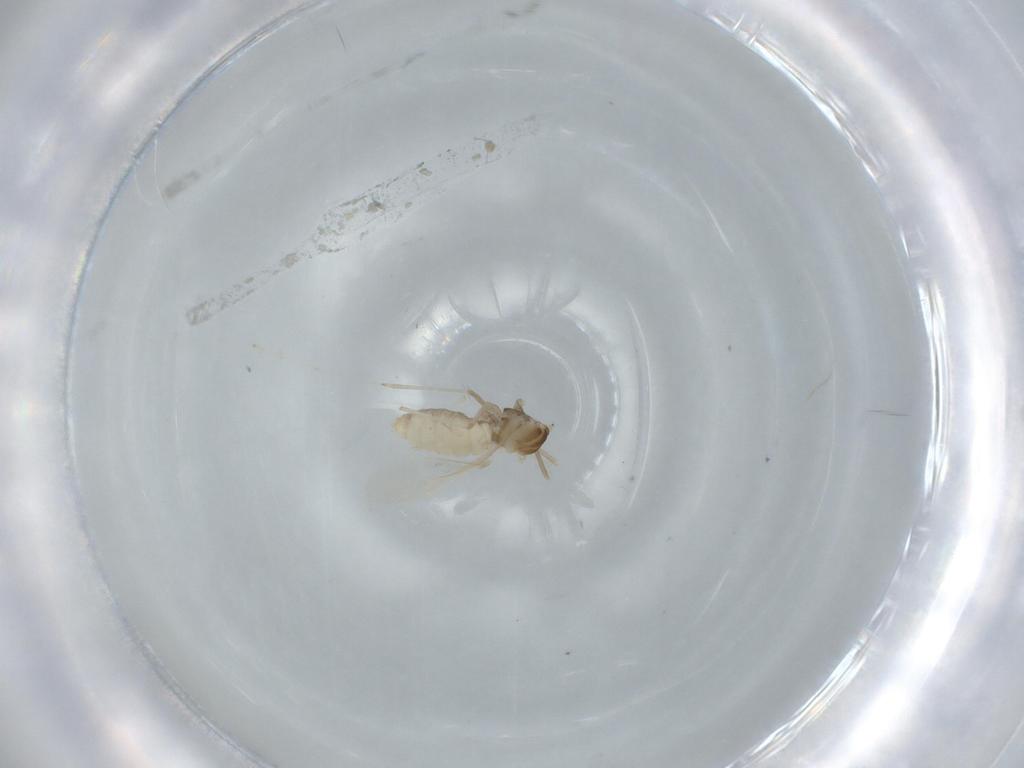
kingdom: Animalia
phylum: Arthropoda
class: Insecta
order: Diptera
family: Cecidomyiidae
